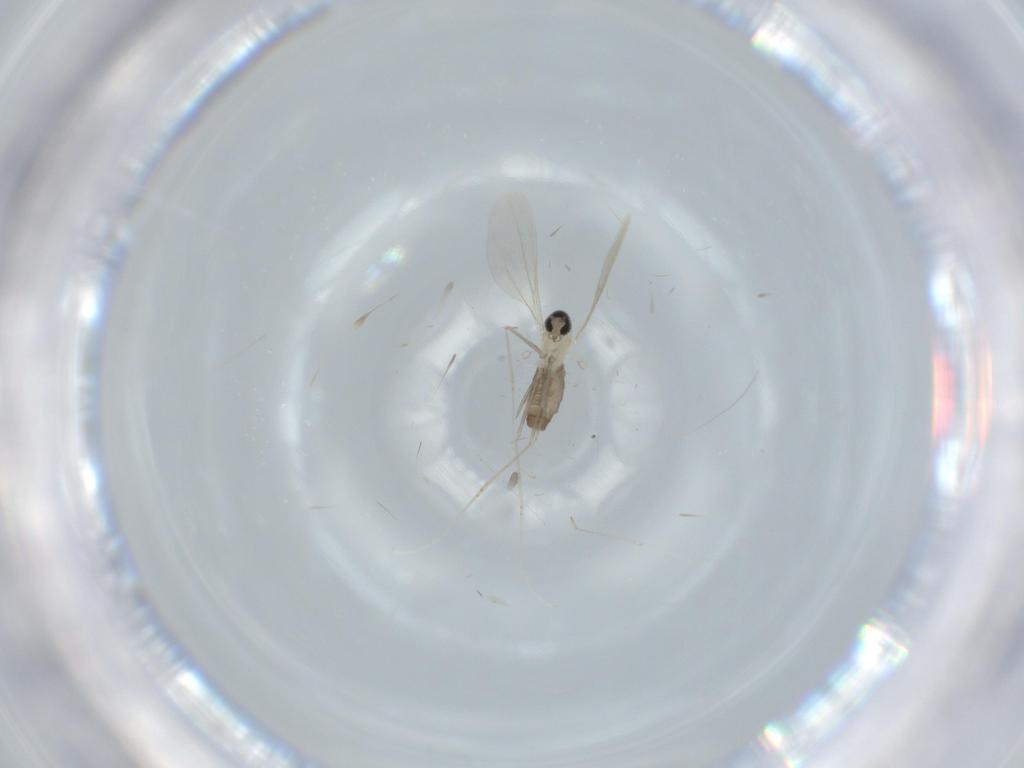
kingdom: Animalia
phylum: Arthropoda
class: Insecta
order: Diptera
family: Cecidomyiidae
